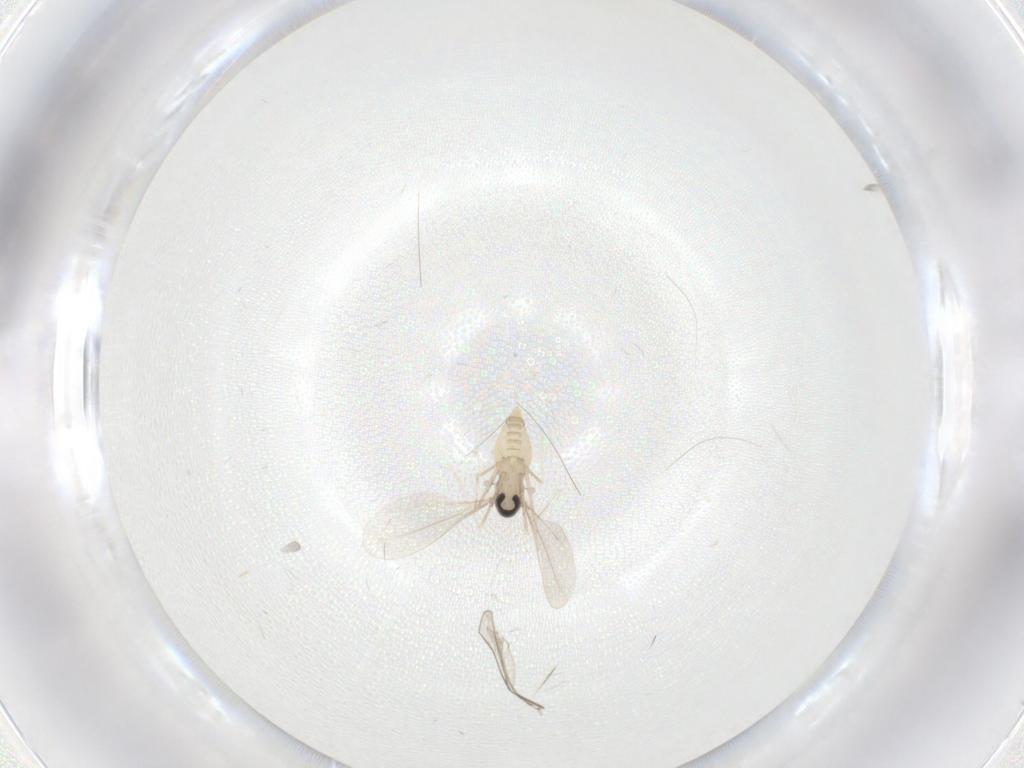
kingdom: Animalia
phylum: Arthropoda
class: Insecta
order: Diptera
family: Cecidomyiidae
